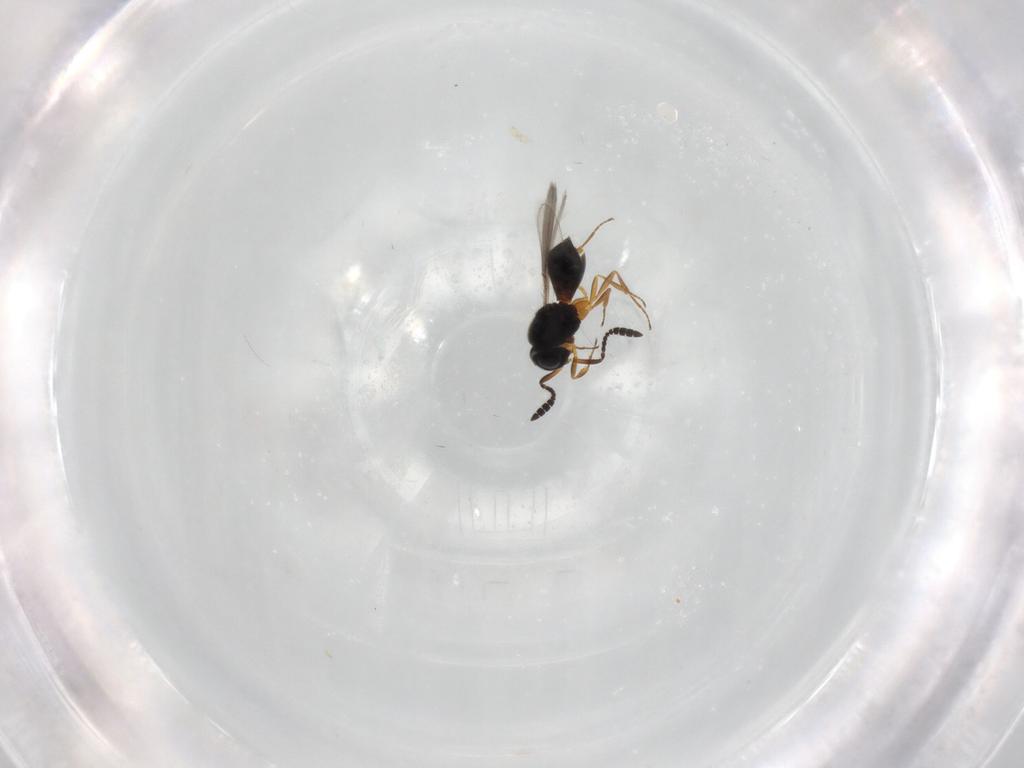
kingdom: Animalia
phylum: Arthropoda
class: Insecta
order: Hymenoptera
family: Scelionidae
